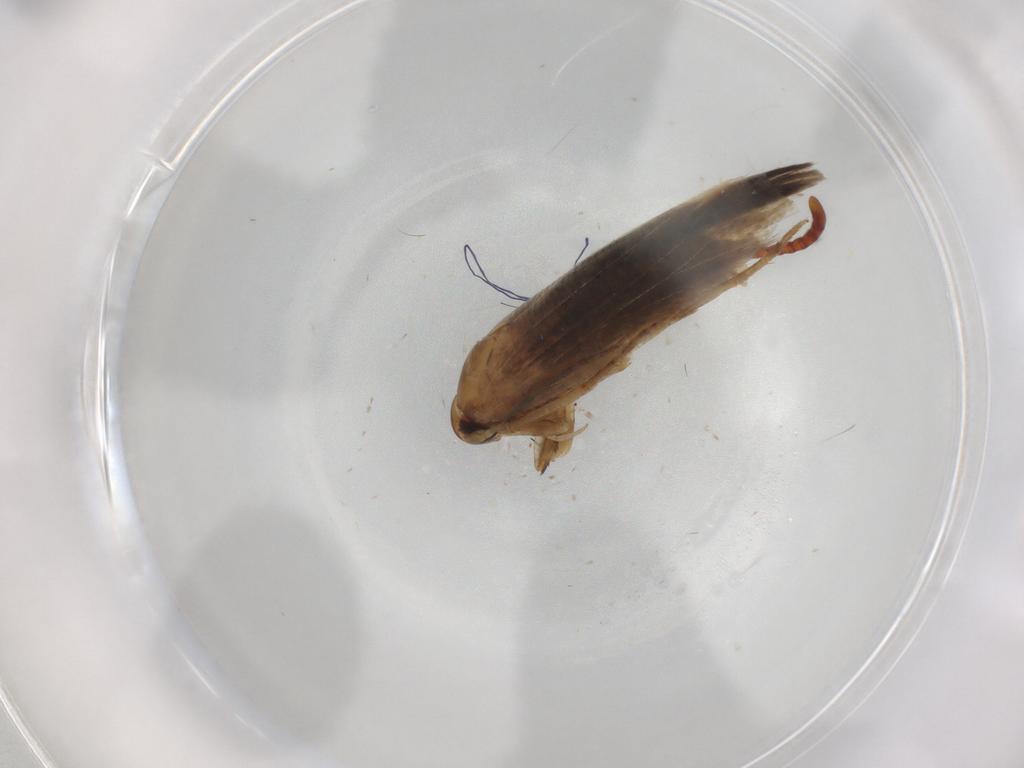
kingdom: Animalia
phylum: Arthropoda
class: Insecta
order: Lepidoptera
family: Cosmopterigidae
